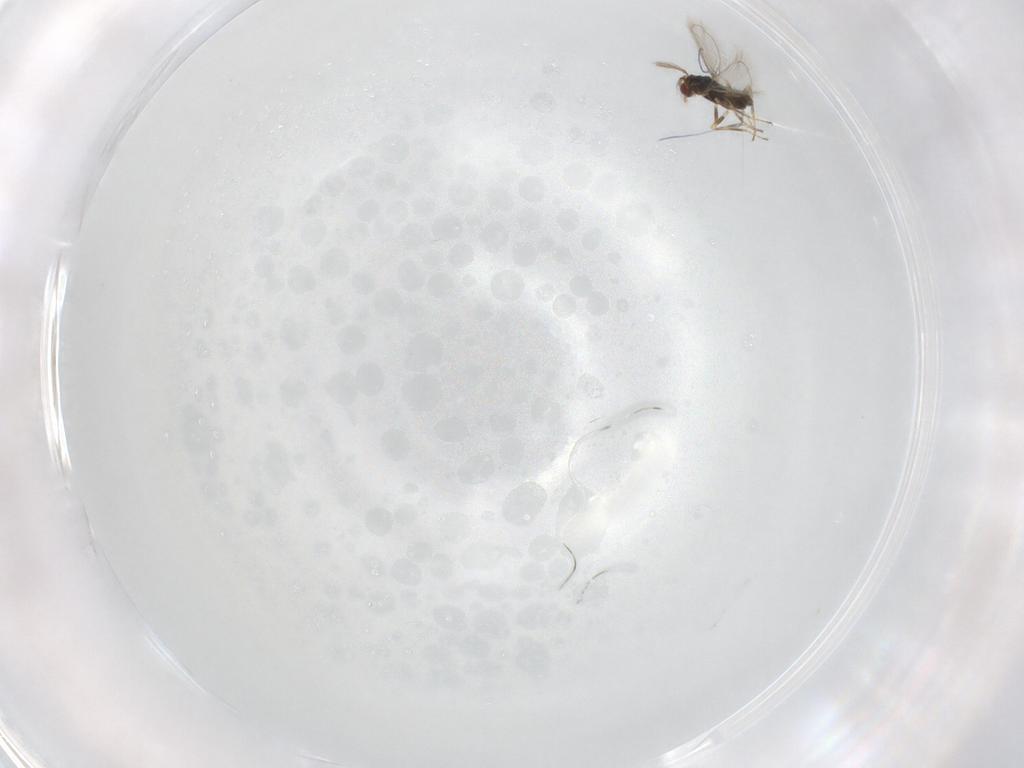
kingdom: Animalia
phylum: Arthropoda
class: Insecta
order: Hymenoptera
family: Eulophidae
